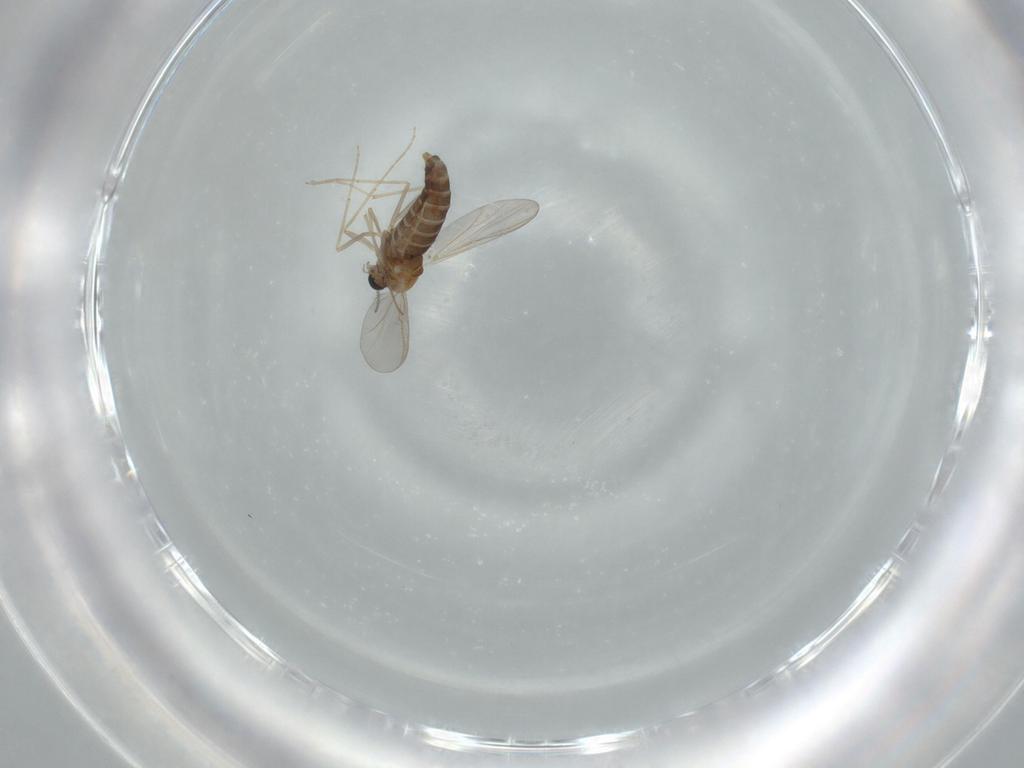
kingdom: Animalia
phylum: Arthropoda
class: Insecta
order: Diptera
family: Chironomidae
